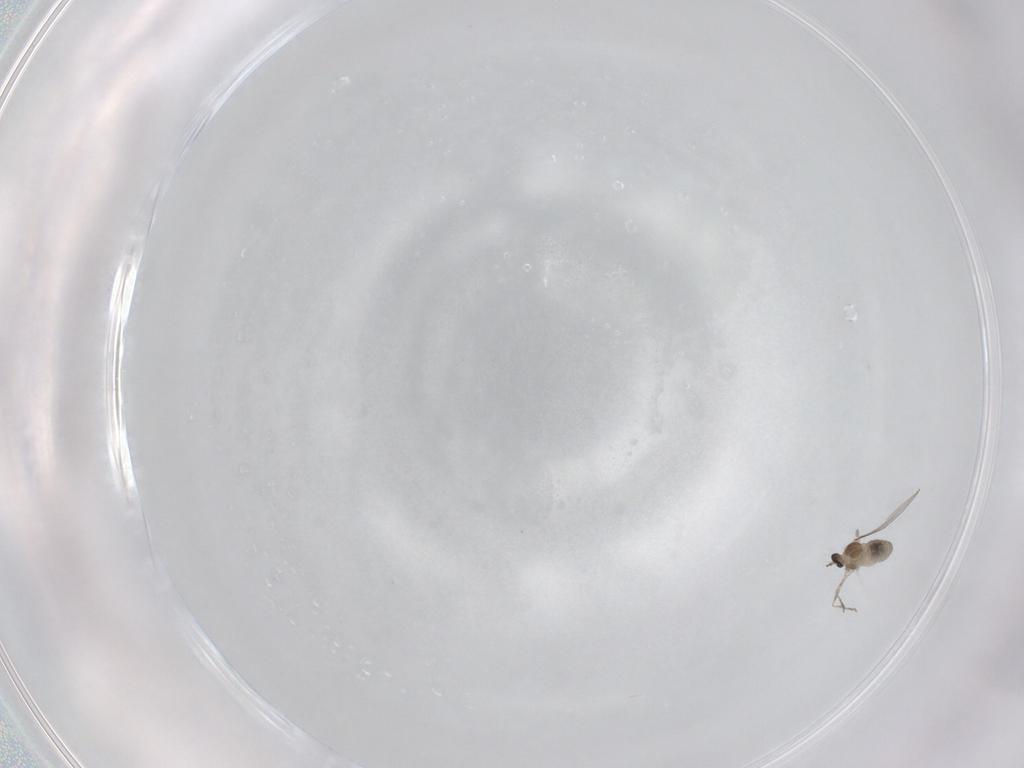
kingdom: Animalia
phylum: Arthropoda
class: Insecta
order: Diptera
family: Cecidomyiidae
